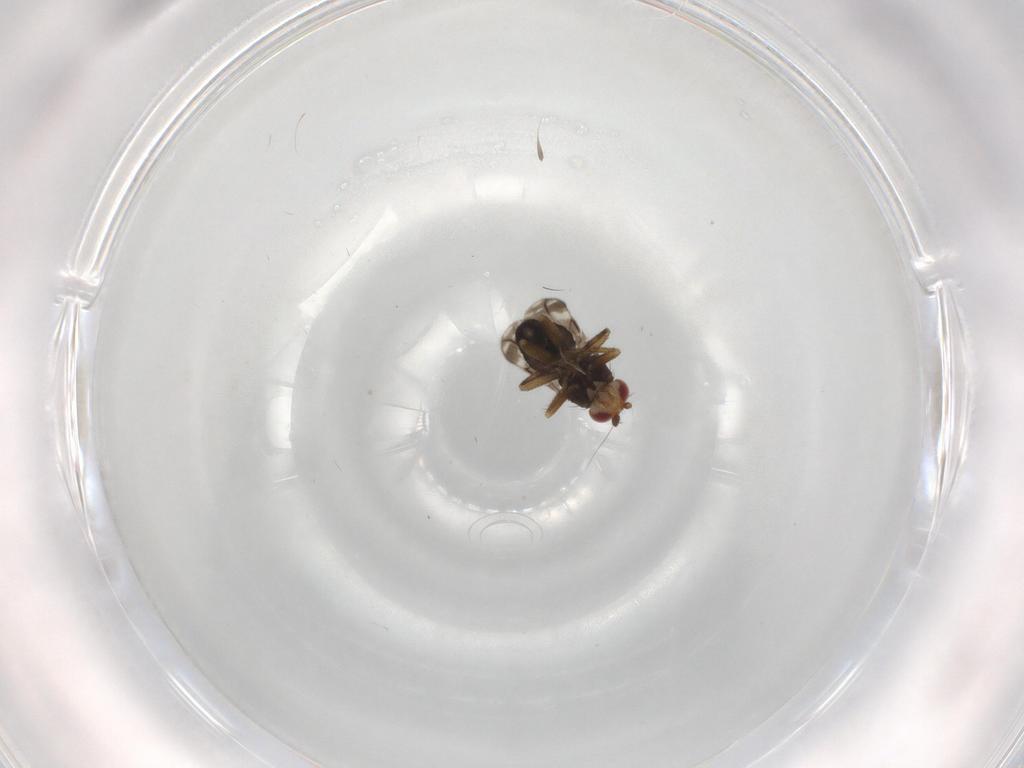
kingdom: Animalia
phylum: Arthropoda
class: Insecta
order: Diptera
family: Sphaeroceridae
